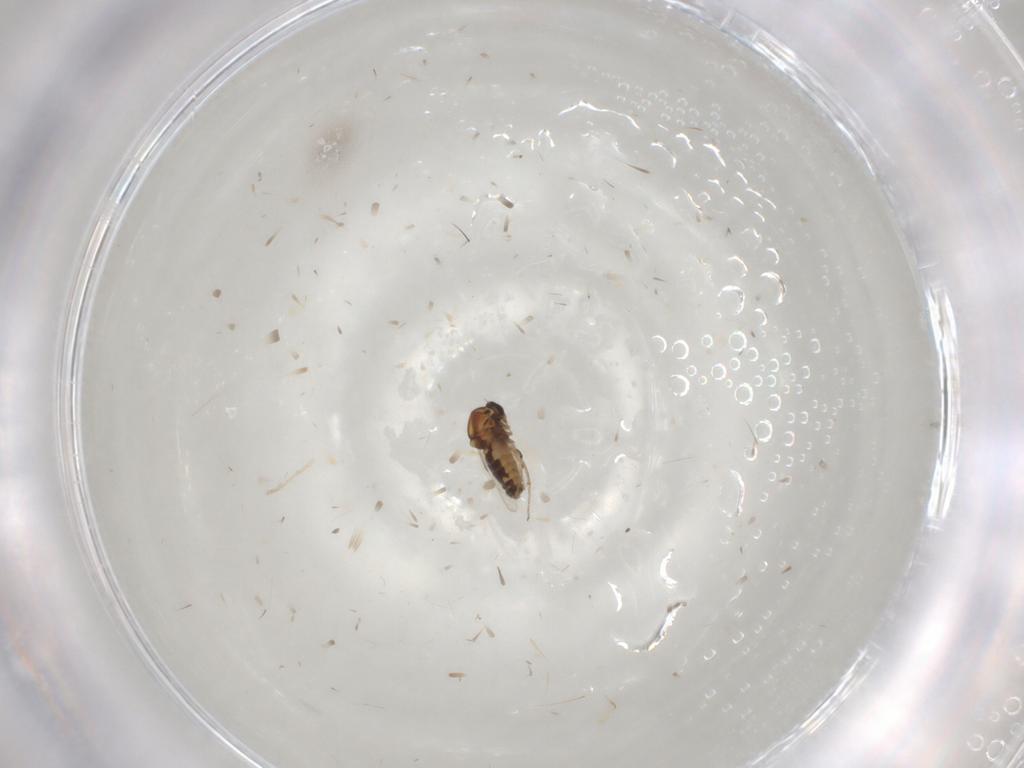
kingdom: Animalia
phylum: Arthropoda
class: Insecta
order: Diptera
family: Ceratopogonidae
